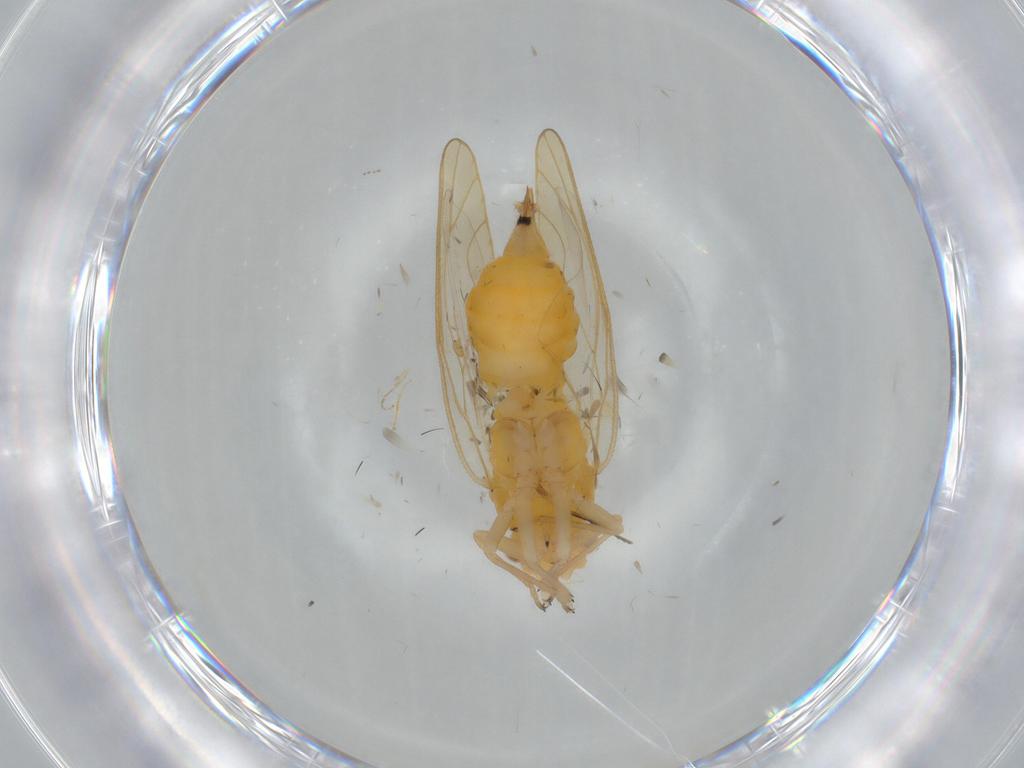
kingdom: Animalia
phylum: Arthropoda
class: Insecta
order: Hemiptera
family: Psyllidae
